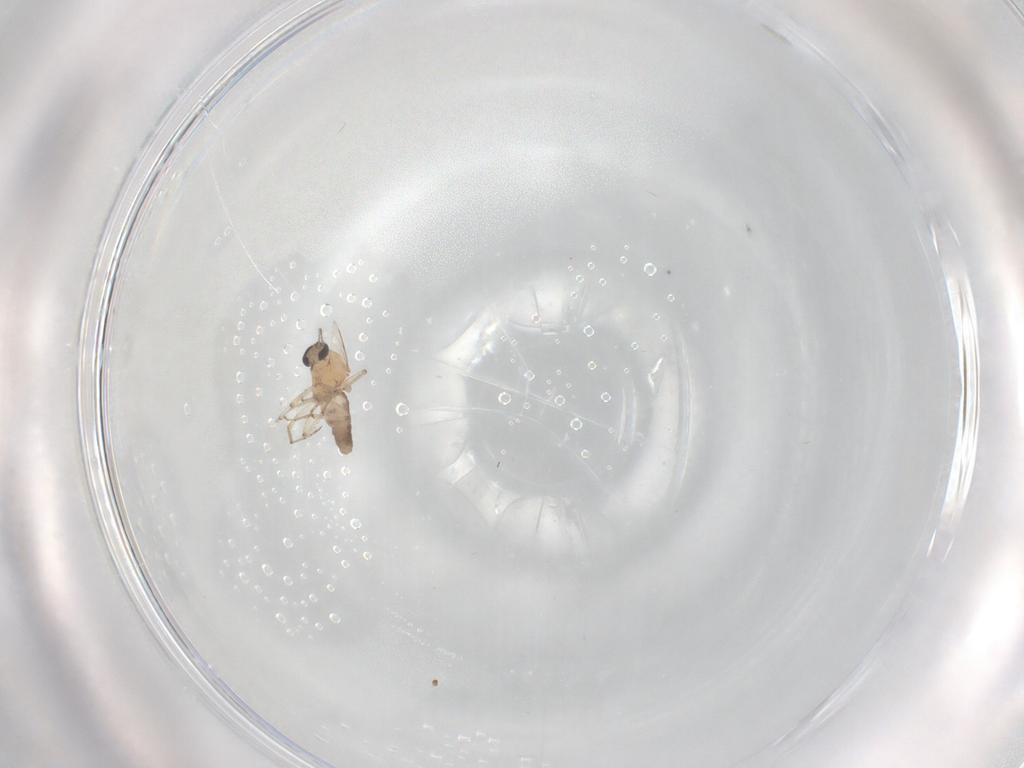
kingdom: Animalia
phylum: Arthropoda
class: Insecta
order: Diptera
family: Ceratopogonidae
